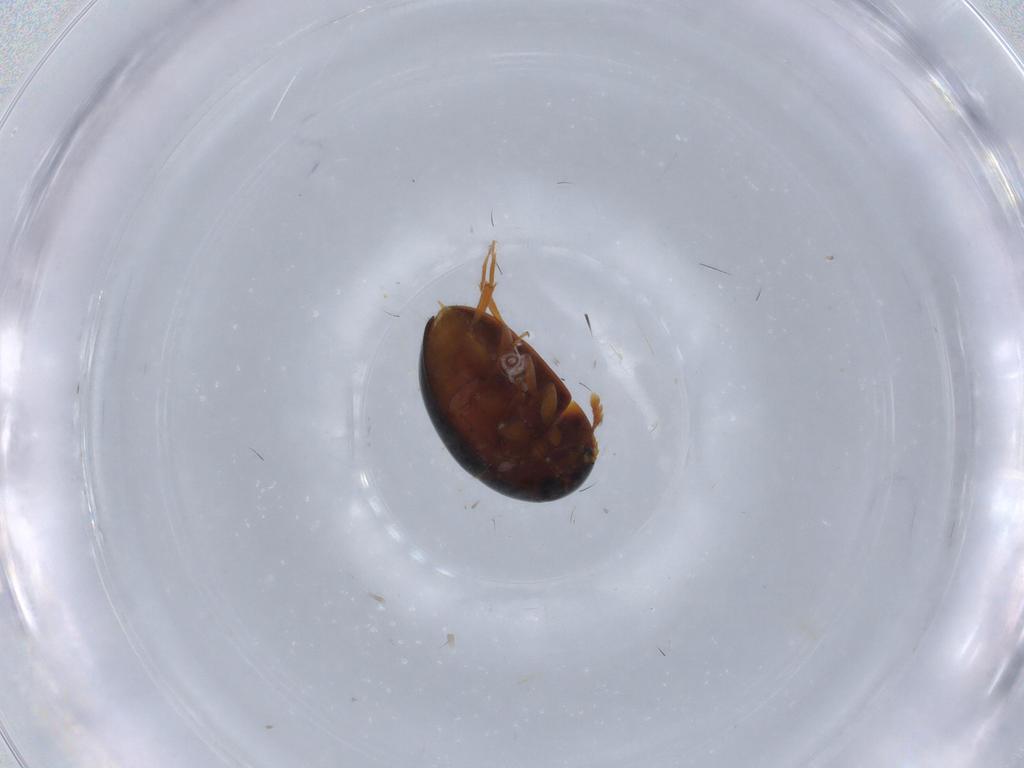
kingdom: Animalia
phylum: Arthropoda
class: Insecta
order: Coleoptera
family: Phalacridae
